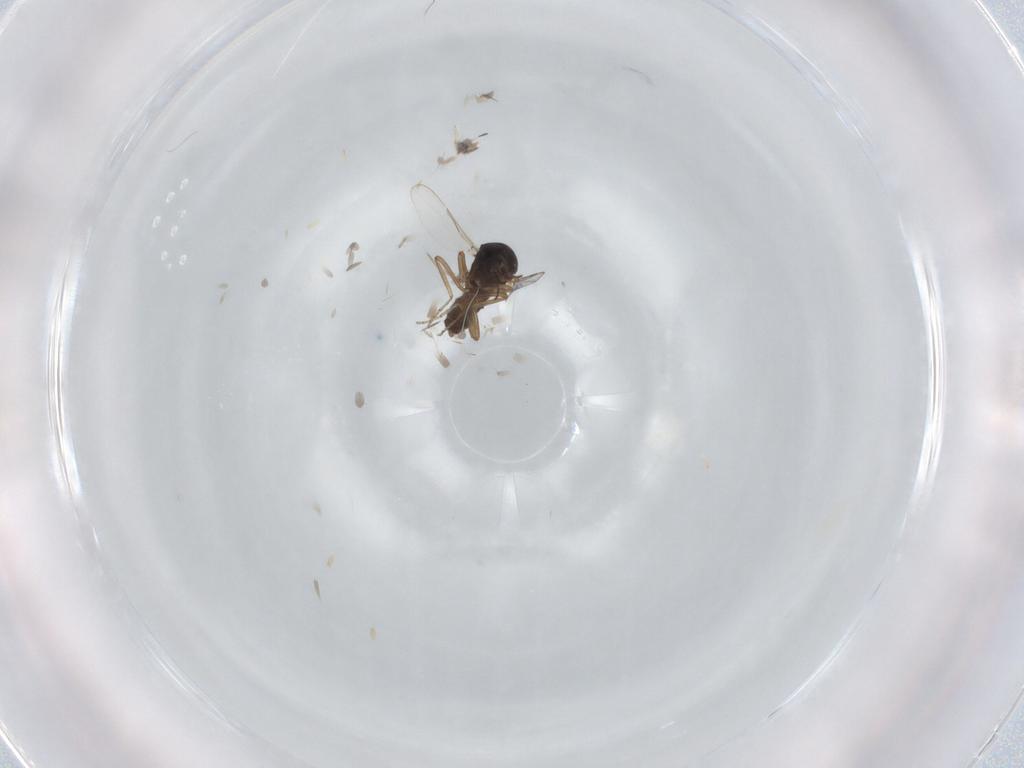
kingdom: Animalia
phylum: Arthropoda
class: Insecta
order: Diptera
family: Ceratopogonidae
